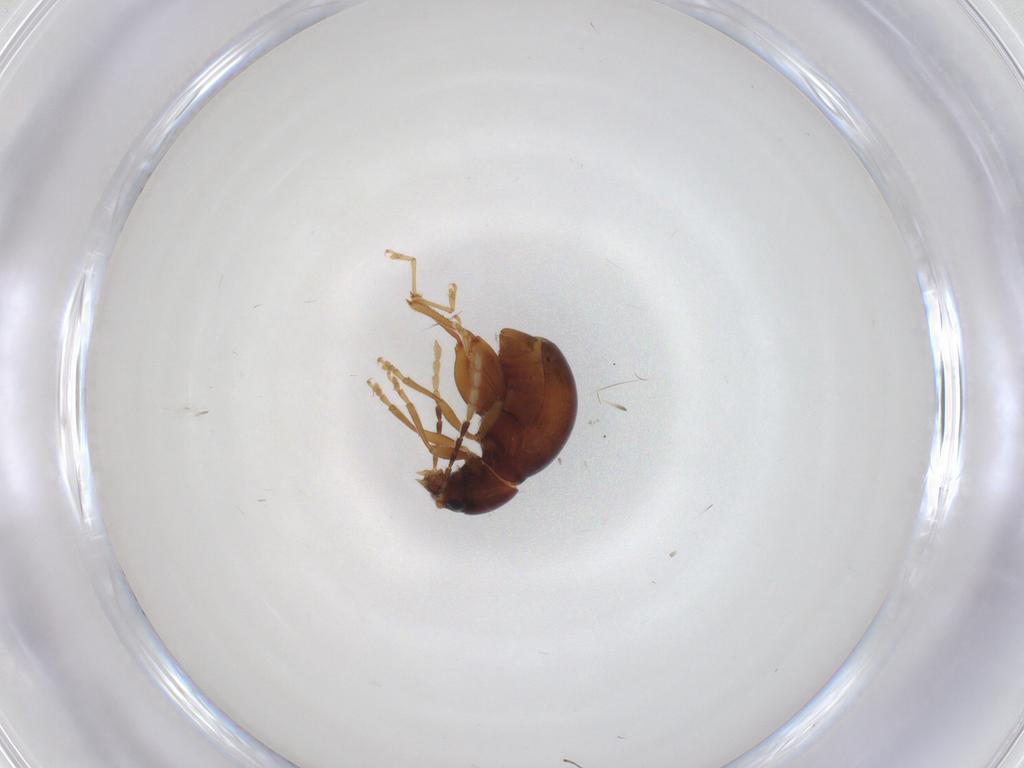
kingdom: Animalia
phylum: Arthropoda
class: Insecta
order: Coleoptera
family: Chrysomelidae
